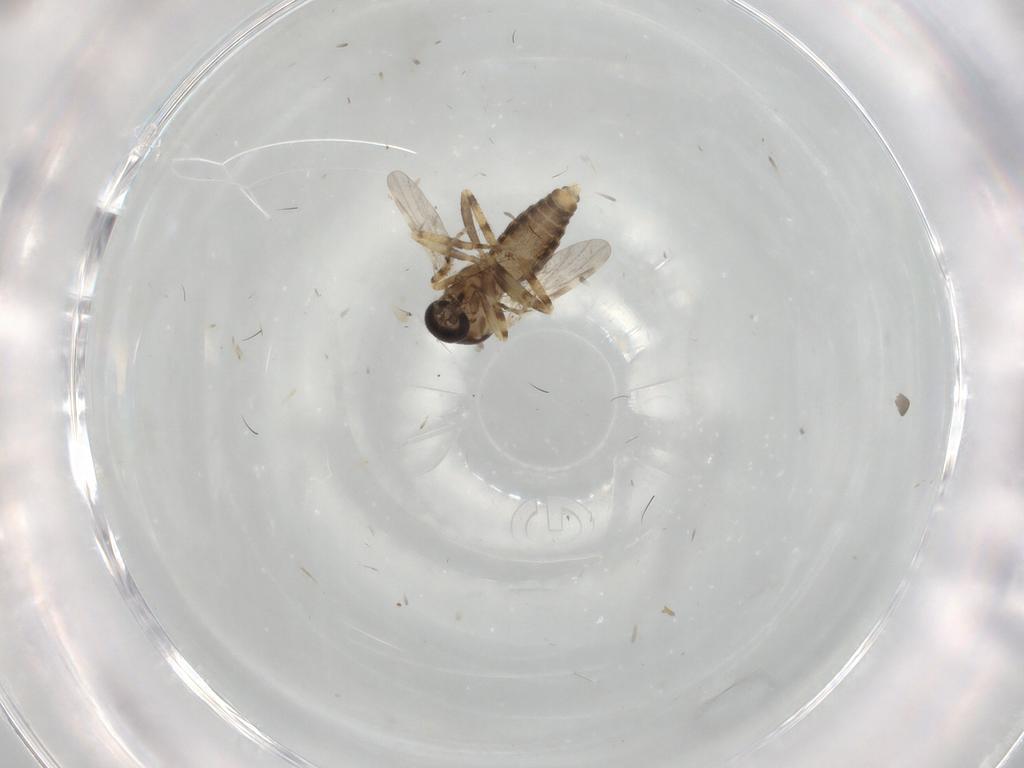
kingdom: Animalia
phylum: Arthropoda
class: Insecta
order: Diptera
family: Ceratopogonidae
